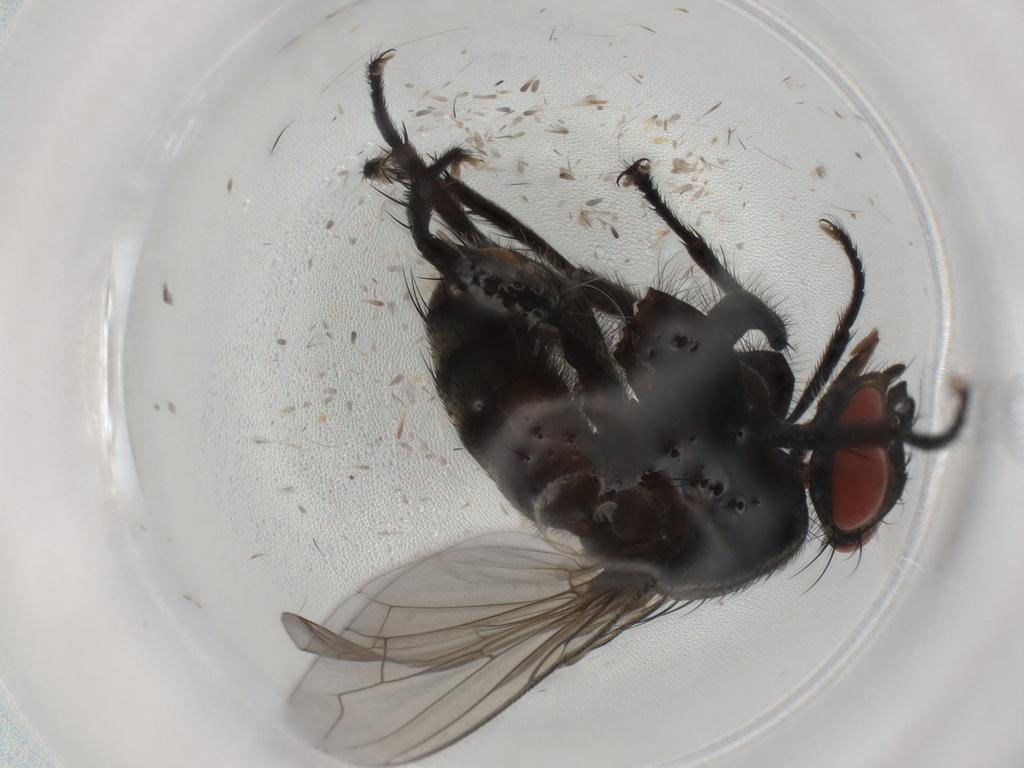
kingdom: Animalia
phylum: Arthropoda
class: Insecta
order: Diptera
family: Sarcophagidae
